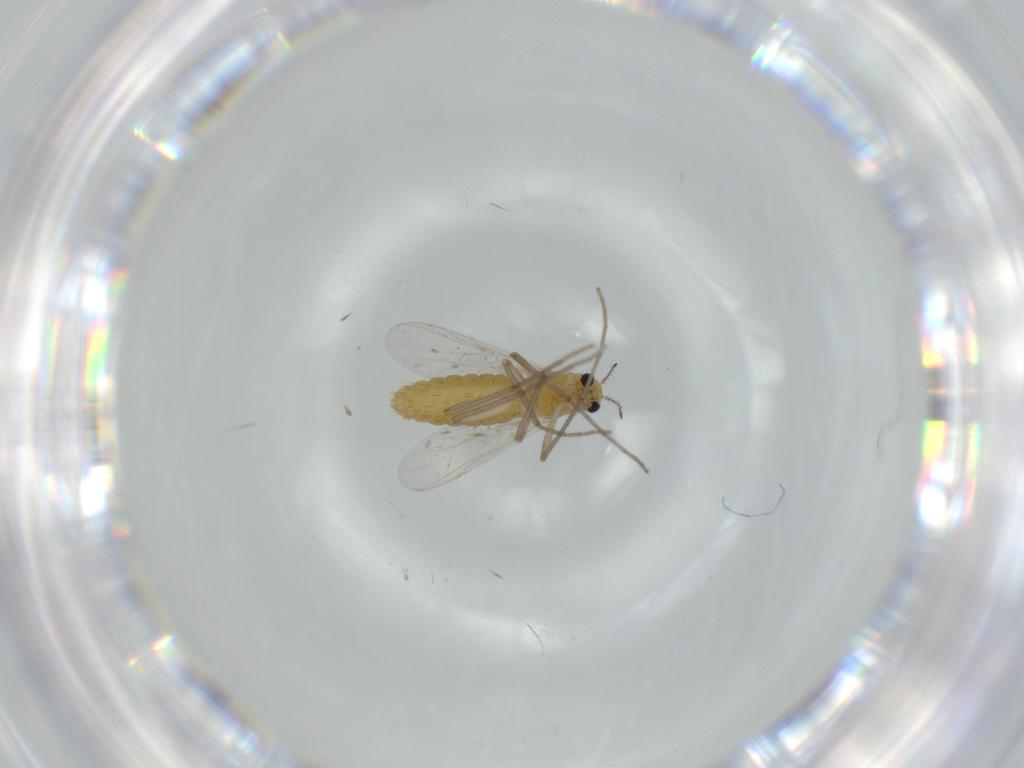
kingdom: Animalia
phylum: Arthropoda
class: Insecta
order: Diptera
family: Chironomidae
